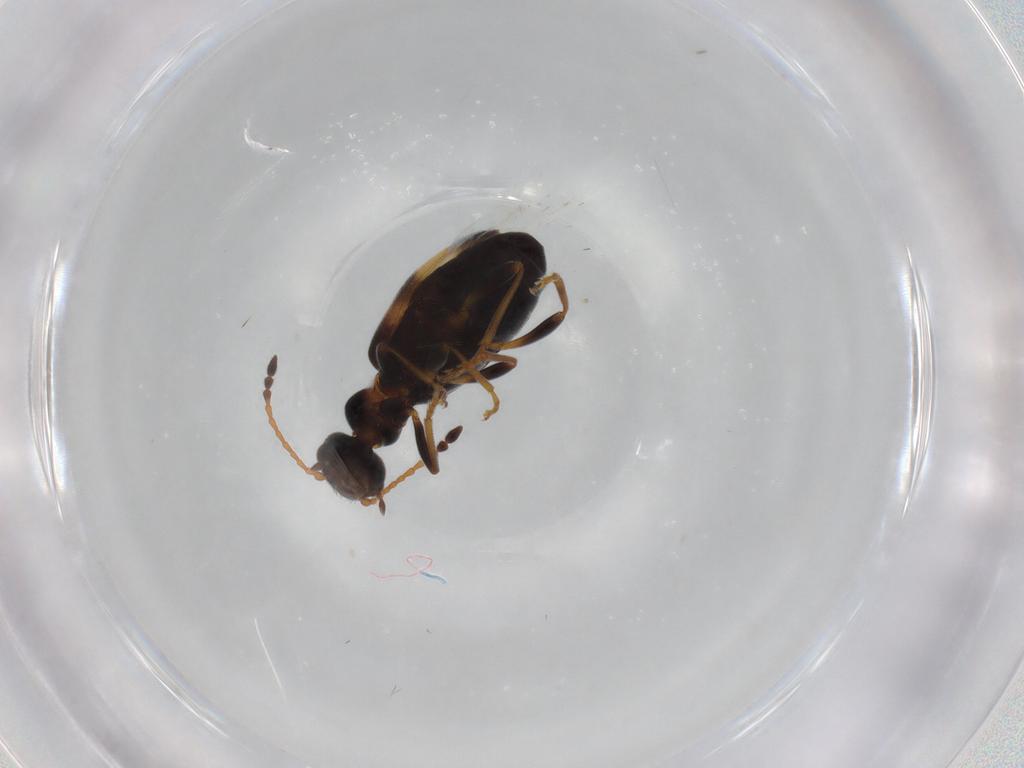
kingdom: Animalia
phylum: Arthropoda
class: Insecta
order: Coleoptera
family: Anthicidae
